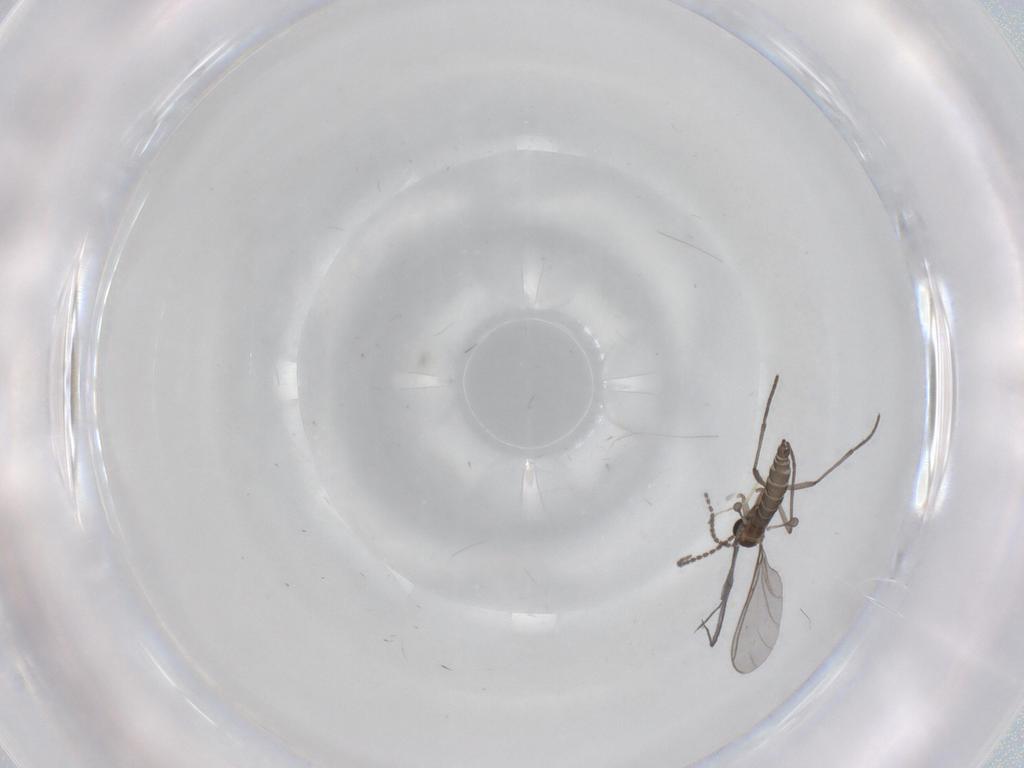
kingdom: Animalia
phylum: Arthropoda
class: Insecta
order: Diptera
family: Sciaridae
